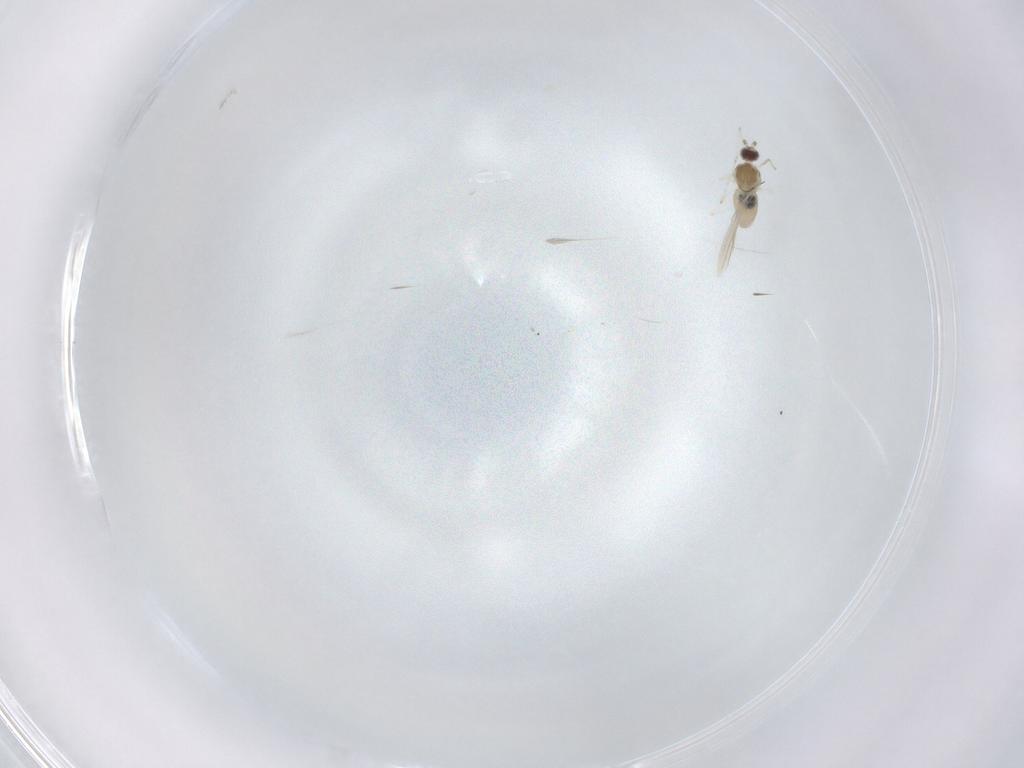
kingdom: Animalia
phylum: Arthropoda
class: Insecta
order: Diptera
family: Cecidomyiidae
